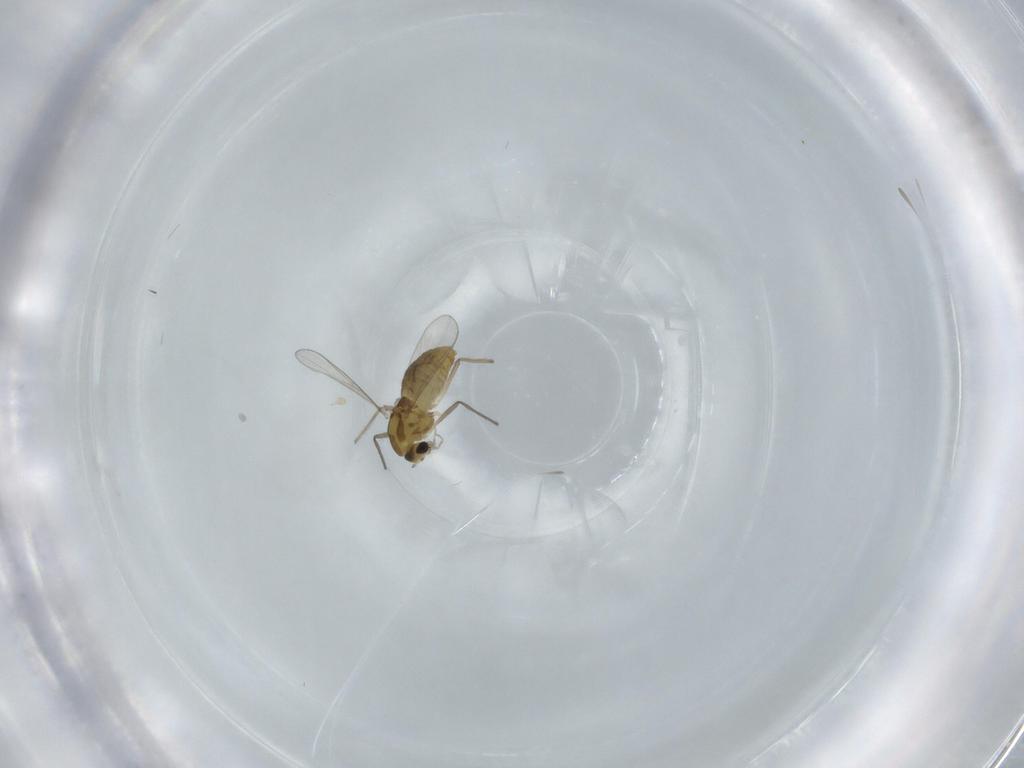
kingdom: Animalia
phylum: Arthropoda
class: Insecta
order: Diptera
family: Chironomidae
